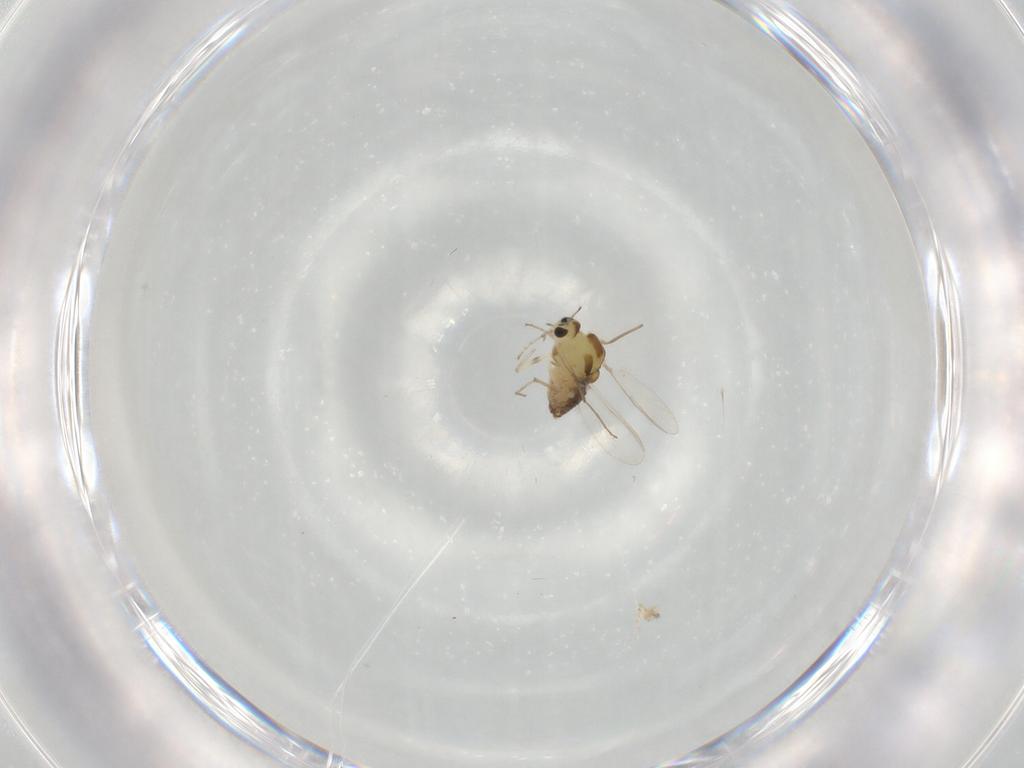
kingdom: Animalia
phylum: Arthropoda
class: Insecta
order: Diptera
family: Chironomidae
